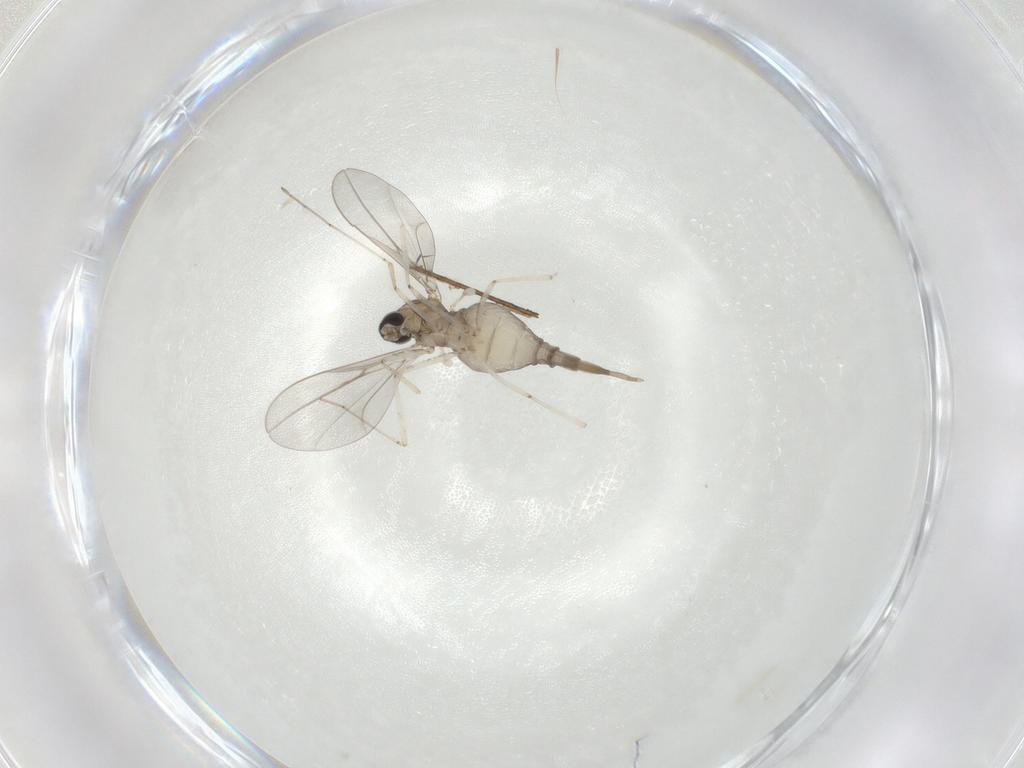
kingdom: Animalia
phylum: Arthropoda
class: Insecta
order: Diptera
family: Cecidomyiidae
